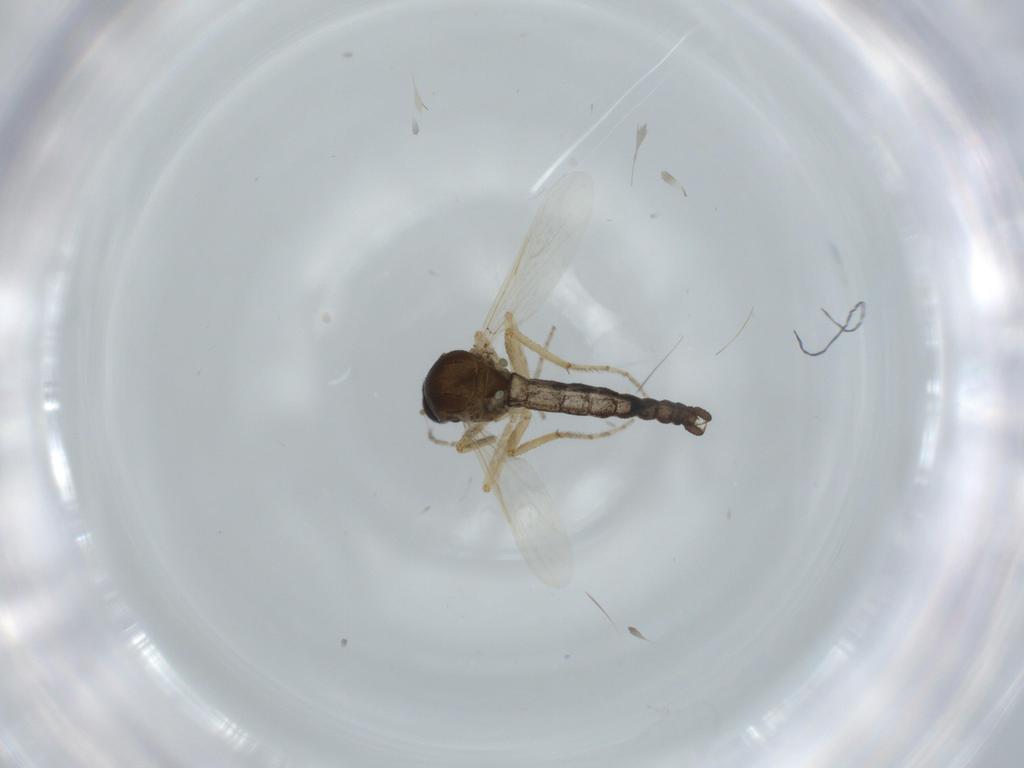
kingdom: Animalia
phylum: Arthropoda
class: Insecta
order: Diptera
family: Ceratopogonidae
